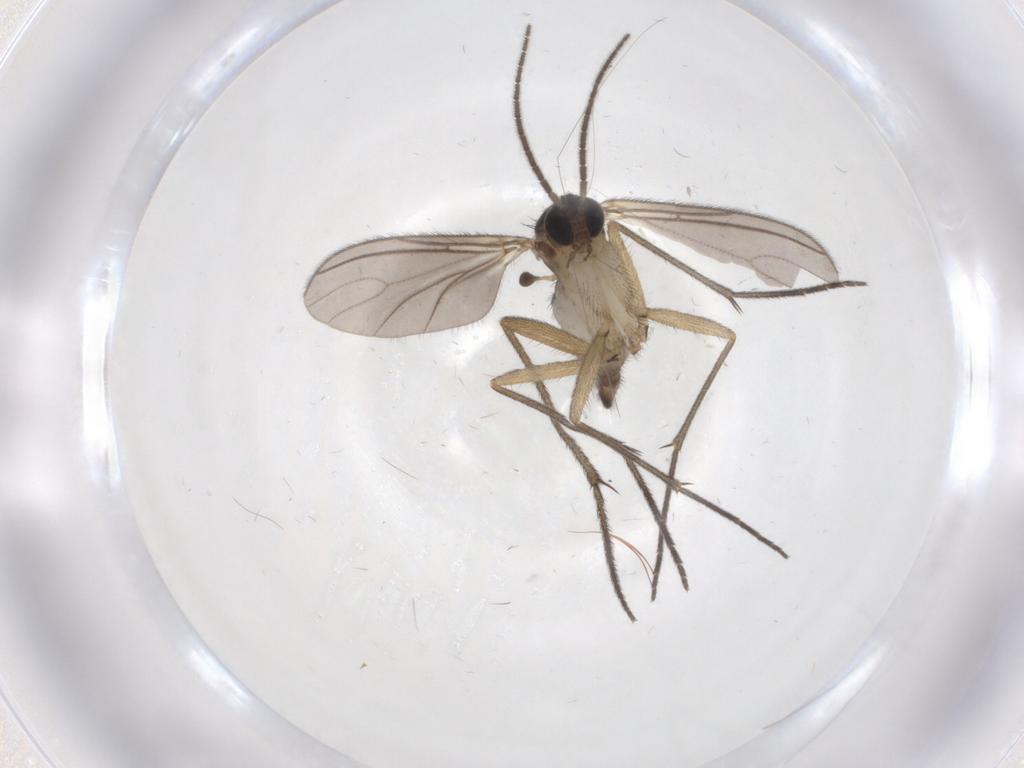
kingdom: Animalia
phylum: Arthropoda
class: Insecta
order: Diptera
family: Sciaridae
